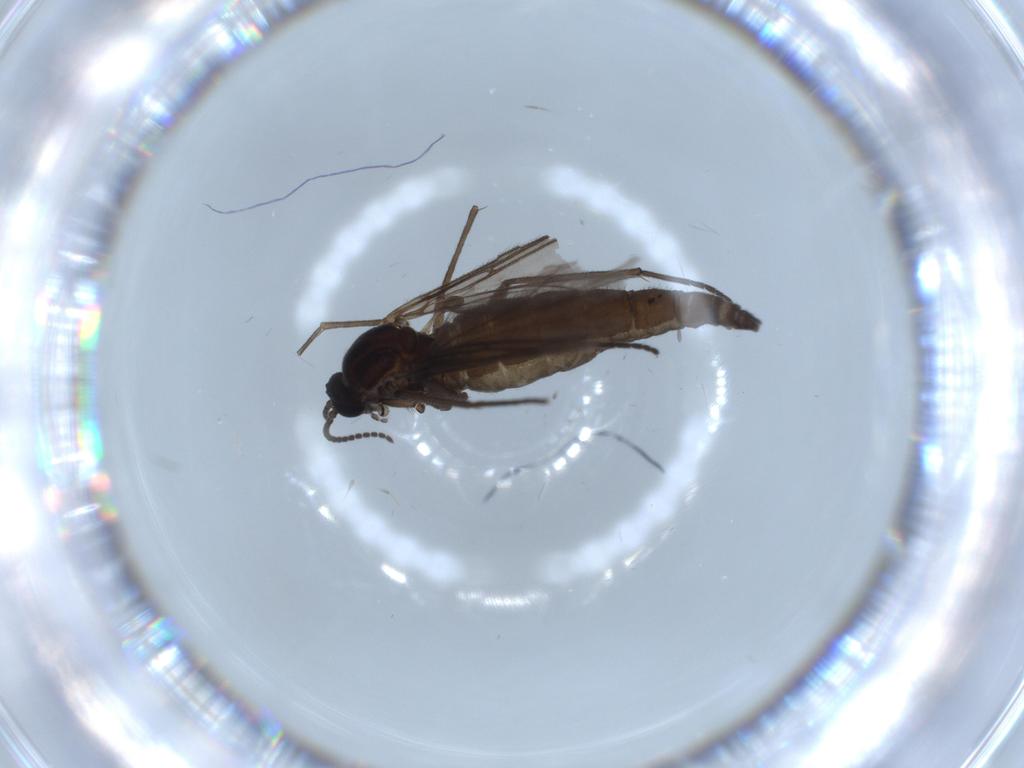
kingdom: Animalia
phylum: Arthropoda
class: Insecta
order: Diptera
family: Sciaridae
